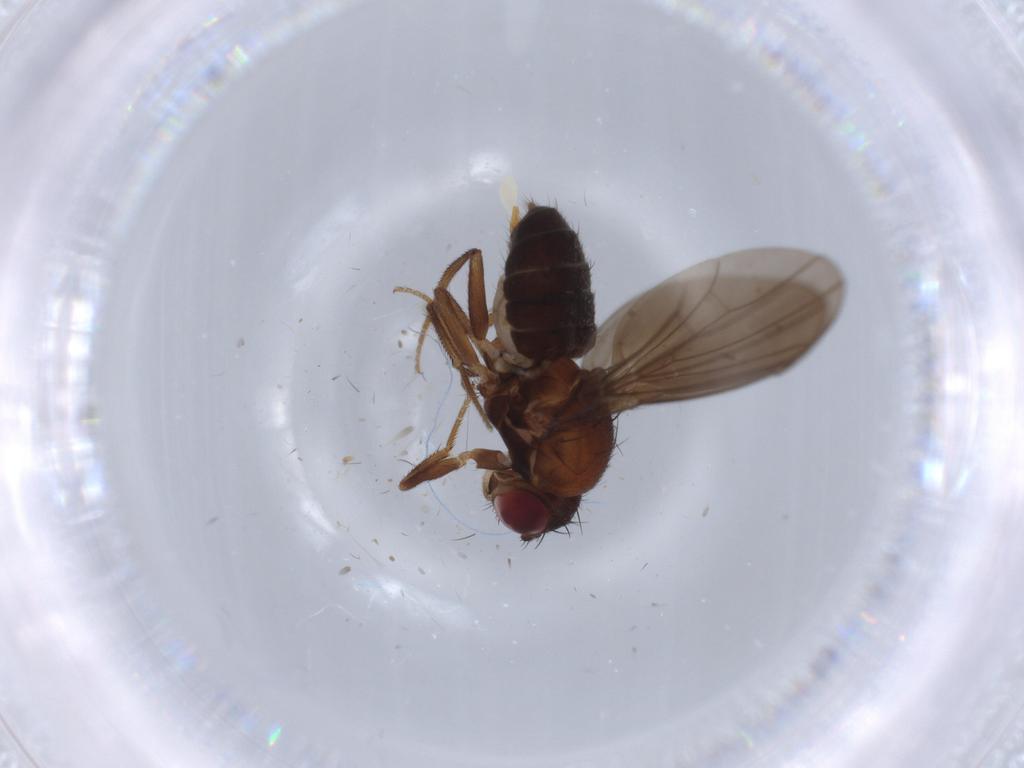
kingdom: Animalia
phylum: Arthropoda
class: Insecta
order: Diptera
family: Drosophilidae
